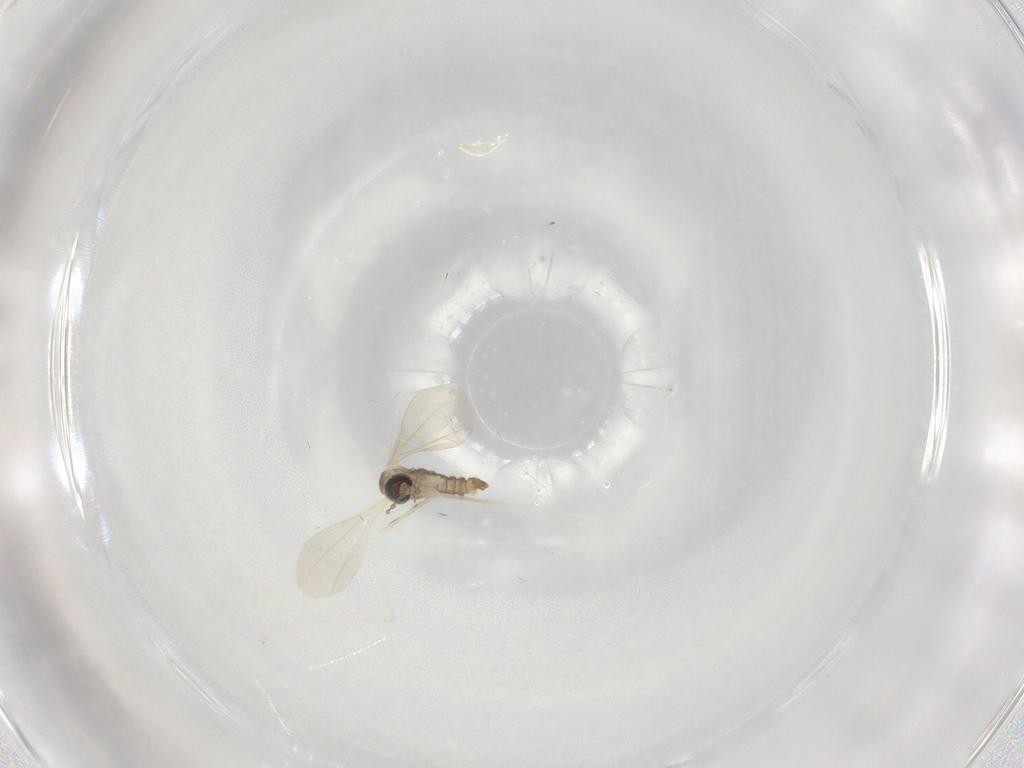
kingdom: Animalia
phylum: Arthropoda
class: Insecta
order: Diptera
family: Cecidomyiidae
